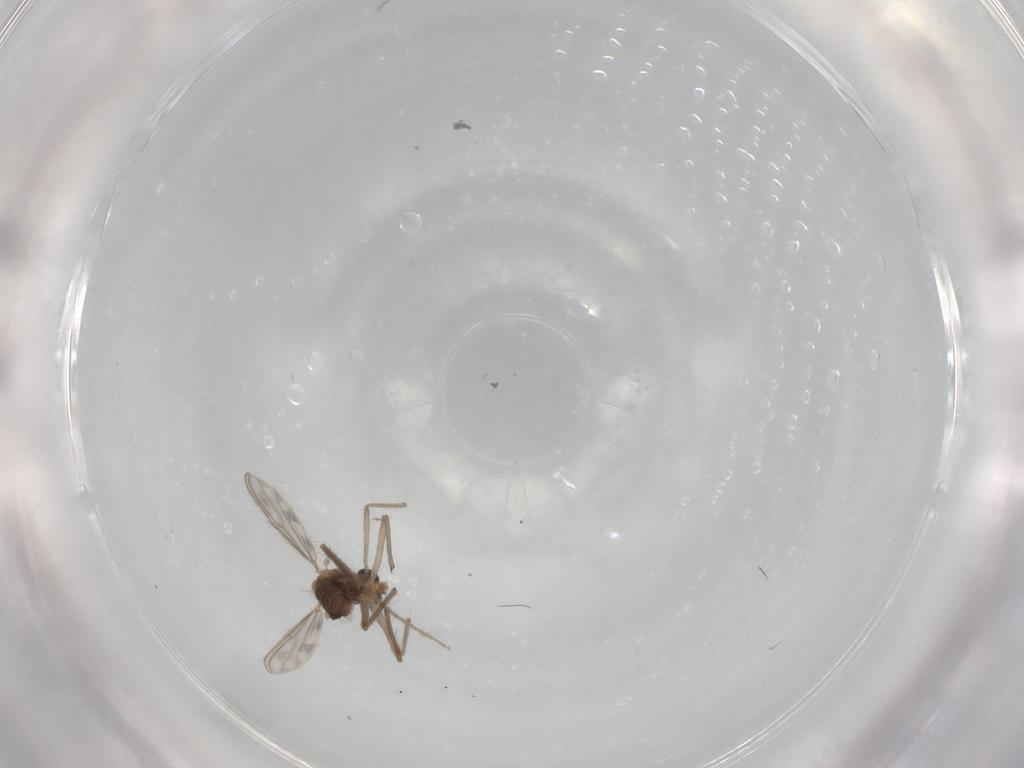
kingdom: Animalia
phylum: Arthropoda
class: Insecta
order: Diptera
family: Chironomidae
